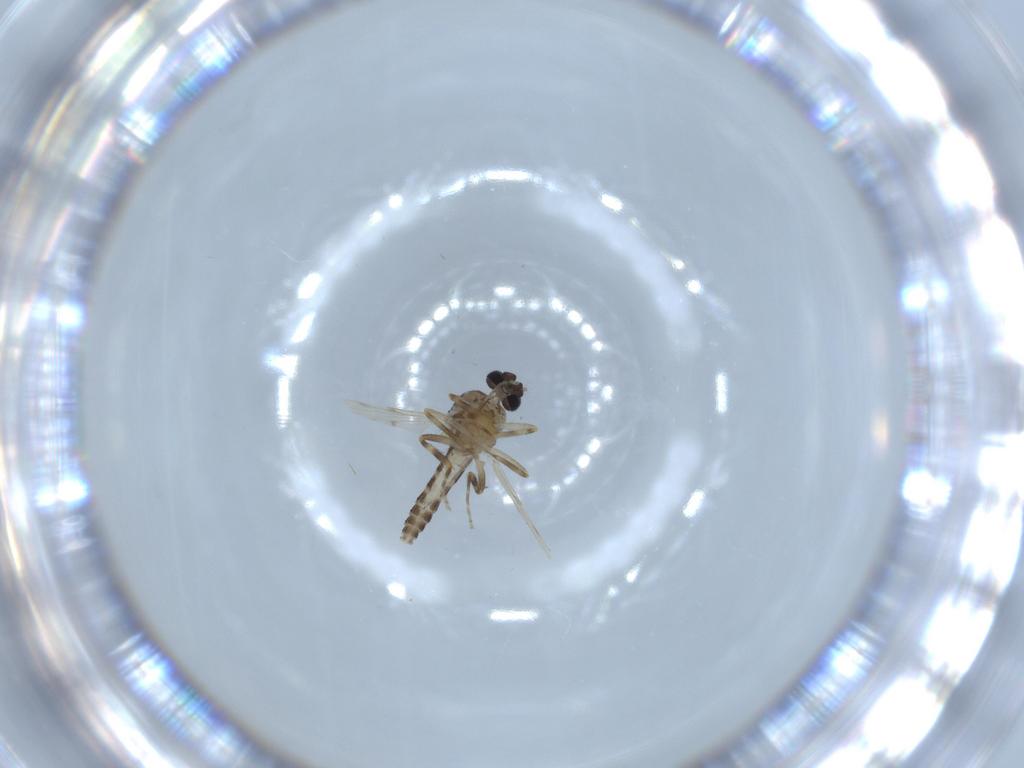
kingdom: Animalia
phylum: Arthropoda
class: Insecta
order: Diptera
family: Ceratopogonidae
